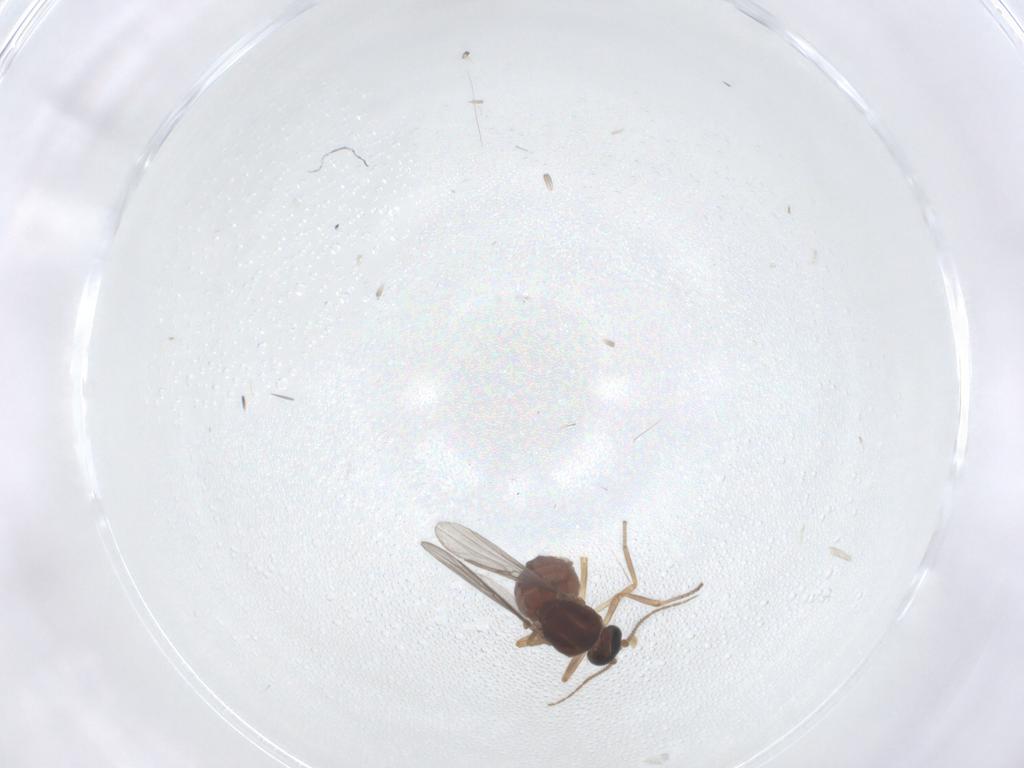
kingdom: Animalia
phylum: Arthropoda
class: Insecta
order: Diptera
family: Ceratopogonidae
